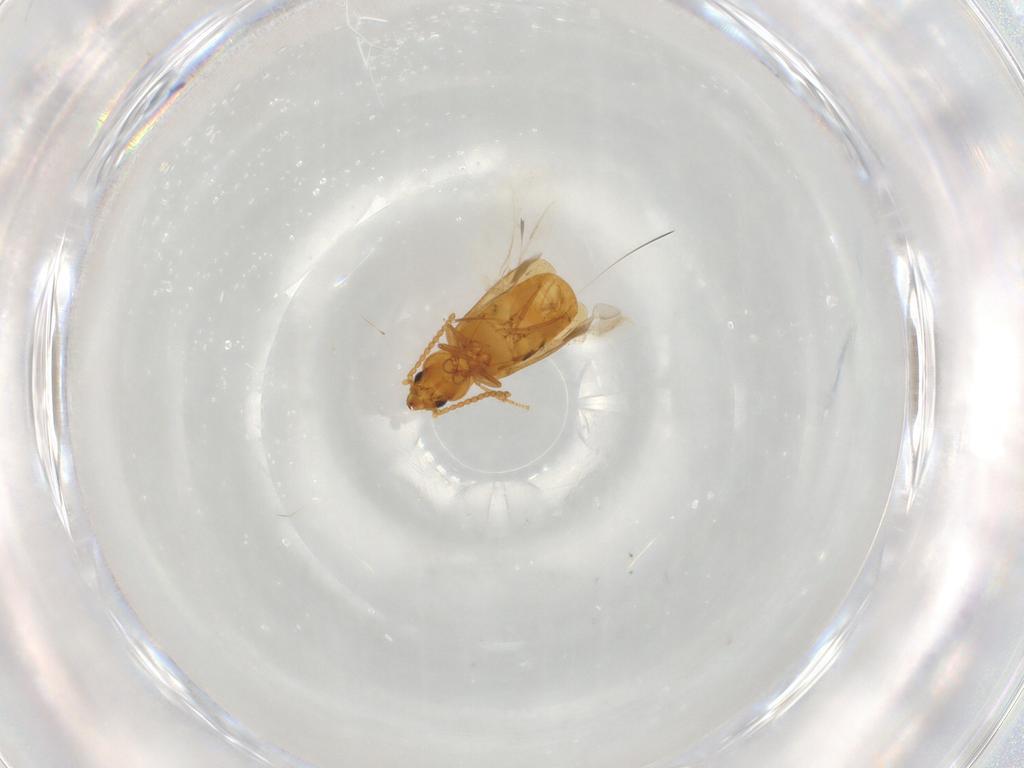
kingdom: Animalia
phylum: Arthropoda
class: Insecta
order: Coleoptera
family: Carabidae
